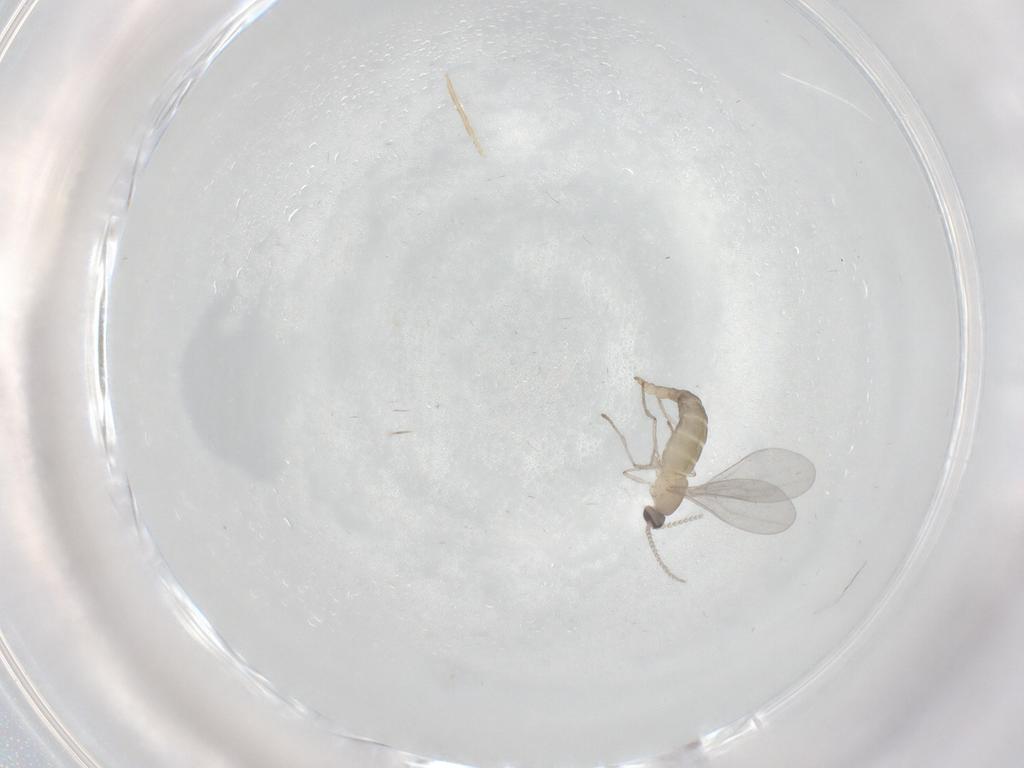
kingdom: Animalia
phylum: Arthropoda
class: Insecta
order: Diptera
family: Cecidomyiidae
